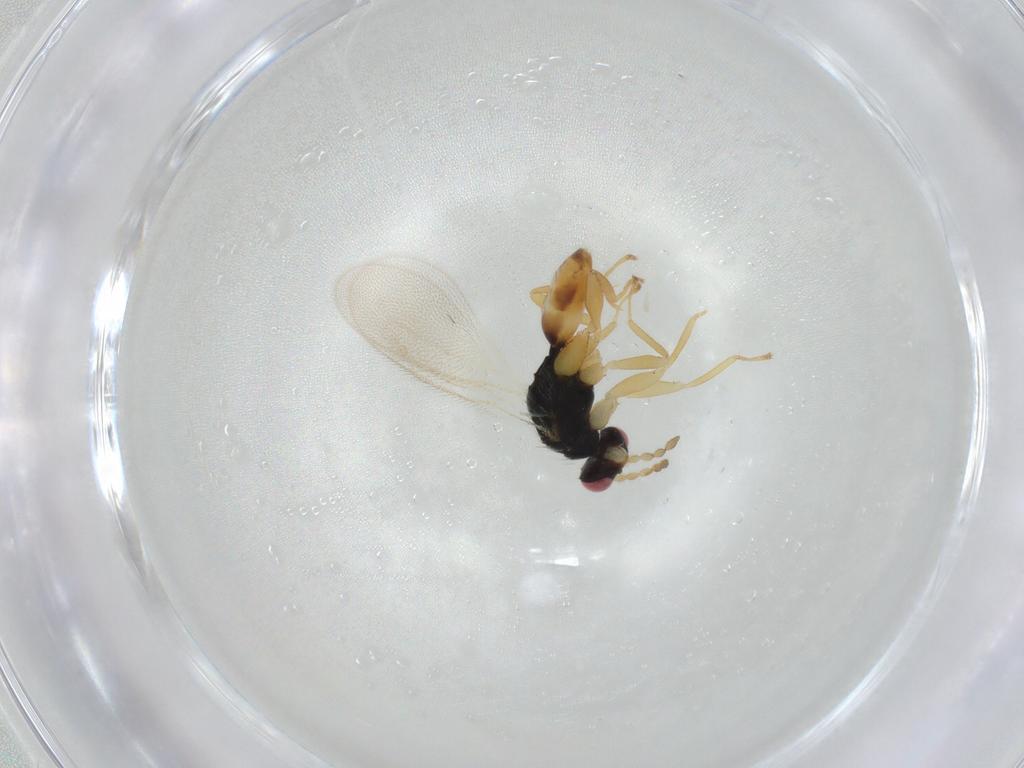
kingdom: Animalia
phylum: Arthropoda
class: Insecta
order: Hymenoptera
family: Eulophidae
